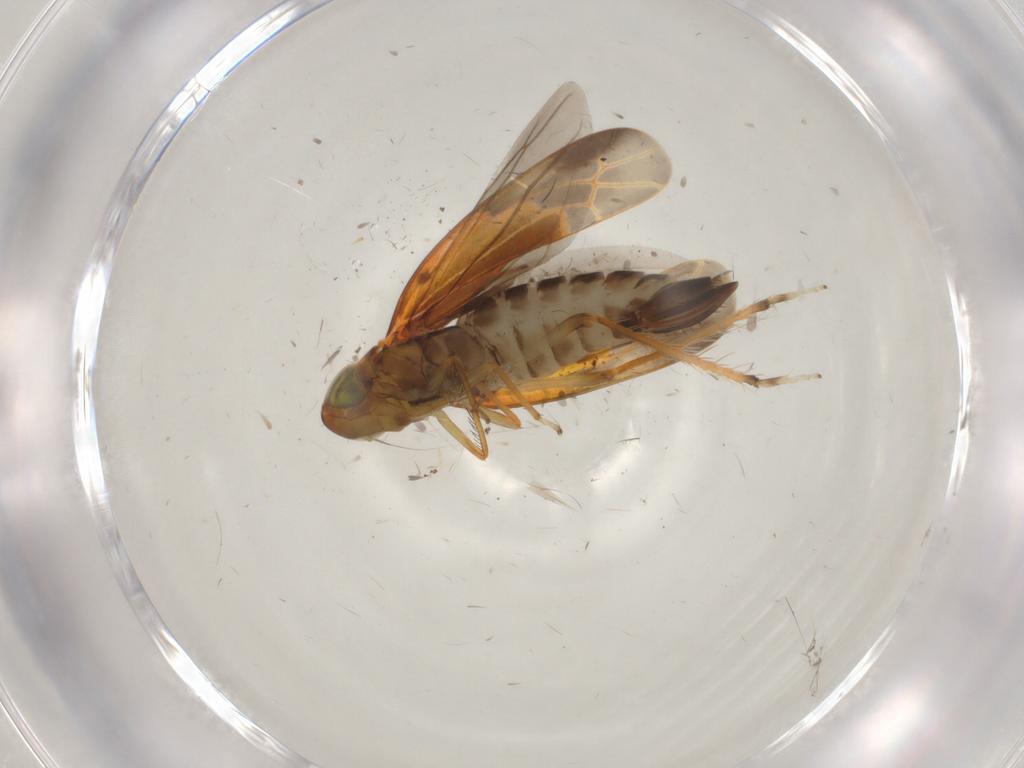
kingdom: Animalia
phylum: Arthropoda
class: Insecta
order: Hemiptera
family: Cicadellidae
